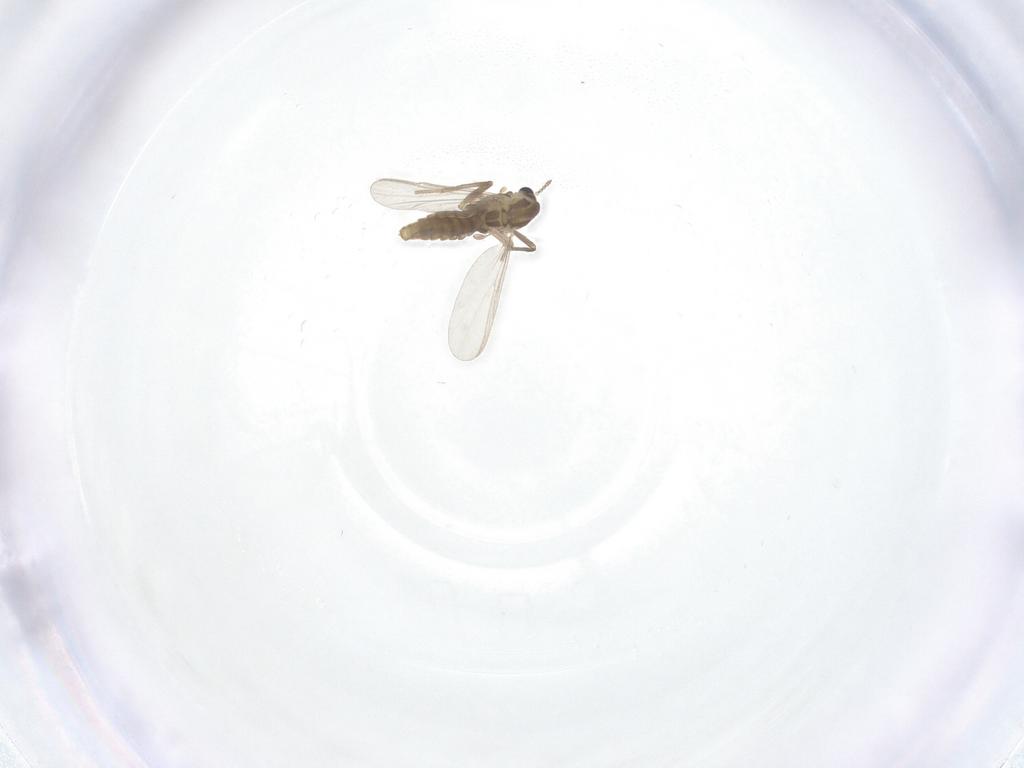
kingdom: Animalia
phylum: Arthropoda
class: Insecta
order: Diptera
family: Chironomidae
